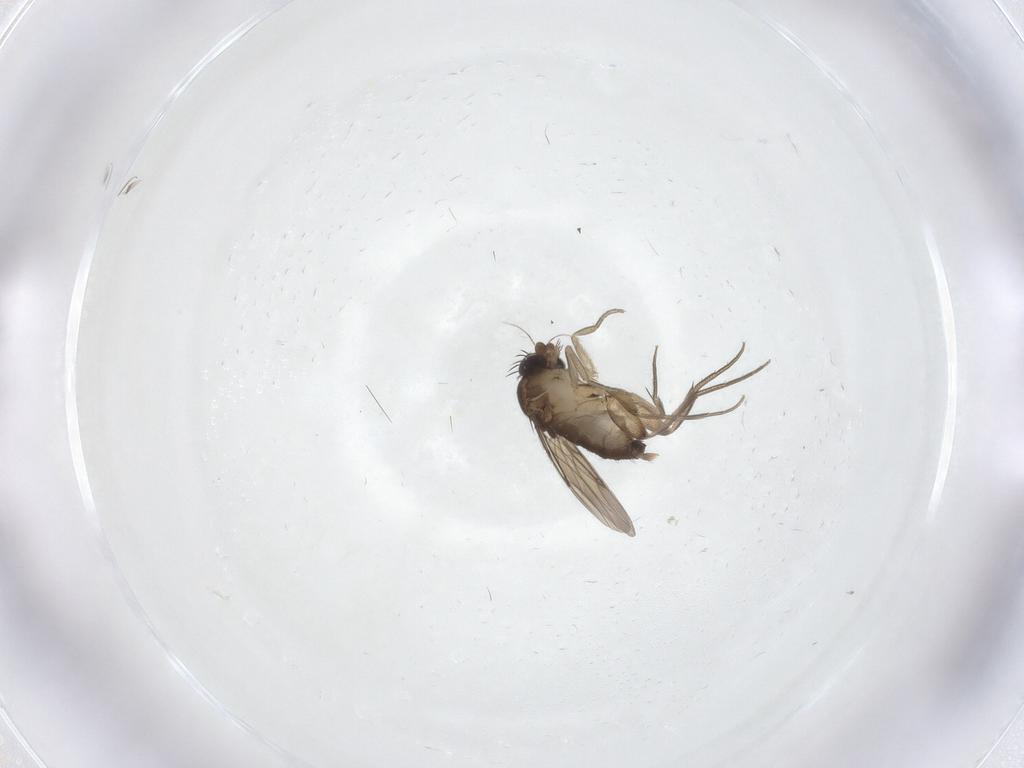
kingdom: Animalia
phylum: Arthropoda
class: Insecta
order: Diptera
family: Phoridae
